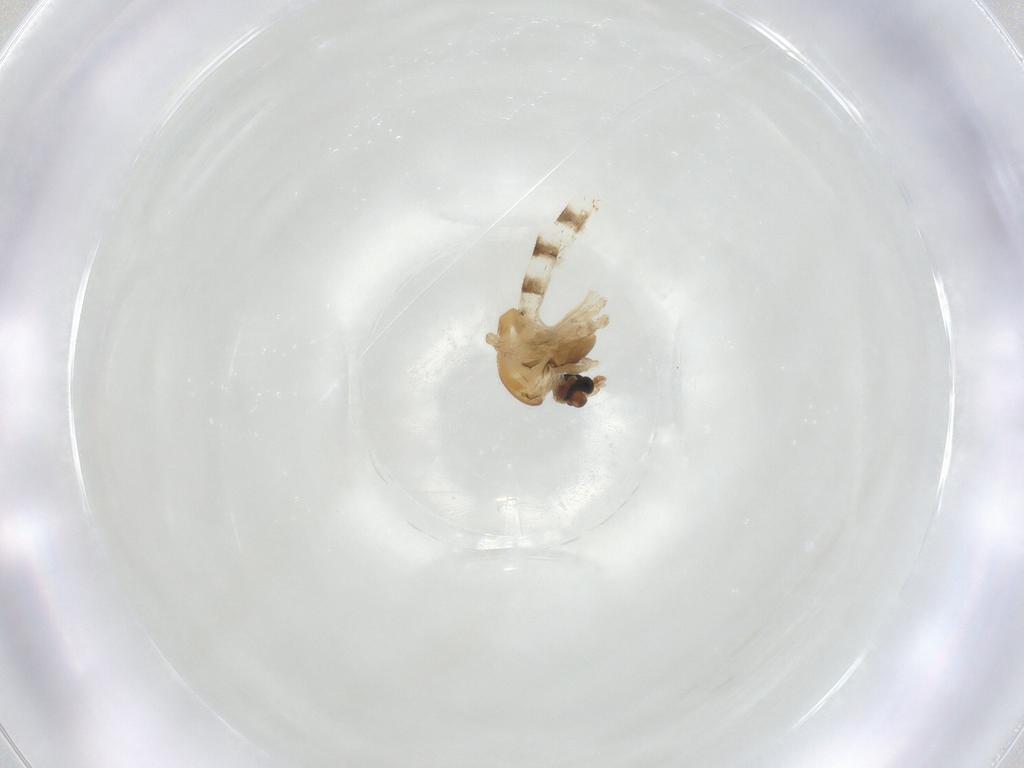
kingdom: Animalia
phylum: Arthropoda
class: Insecta
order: Diptera
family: Chironomidae
